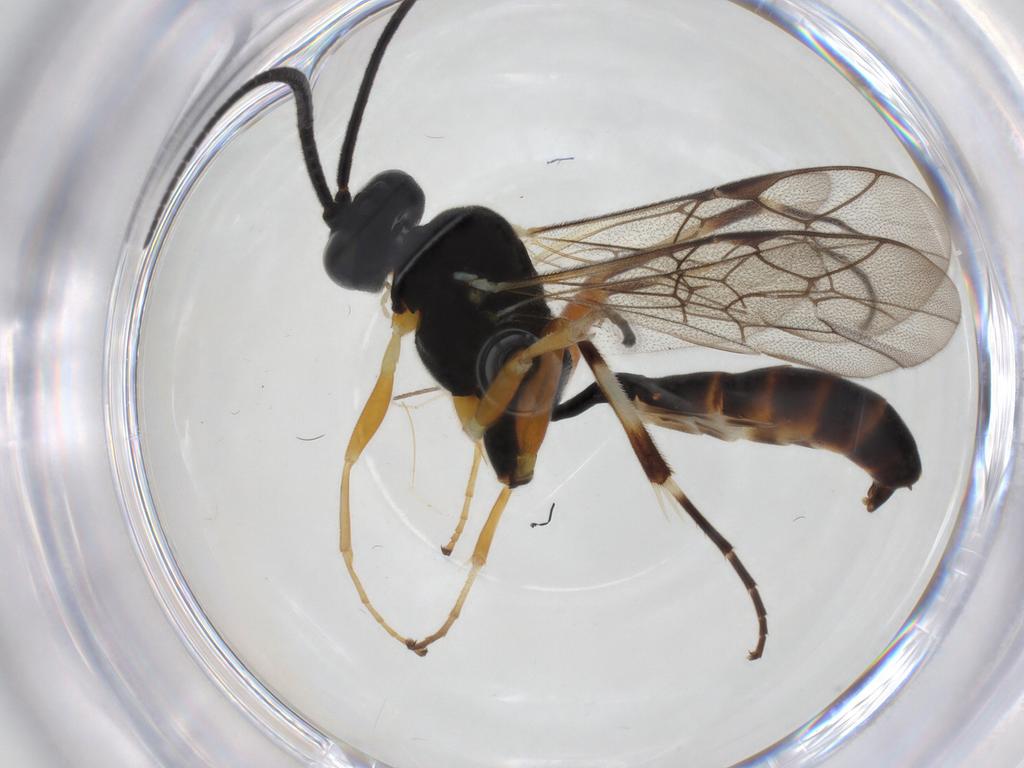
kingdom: Animalia
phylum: Arthropoda
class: Insecta
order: Hymenoptera
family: Ichneumonidae
